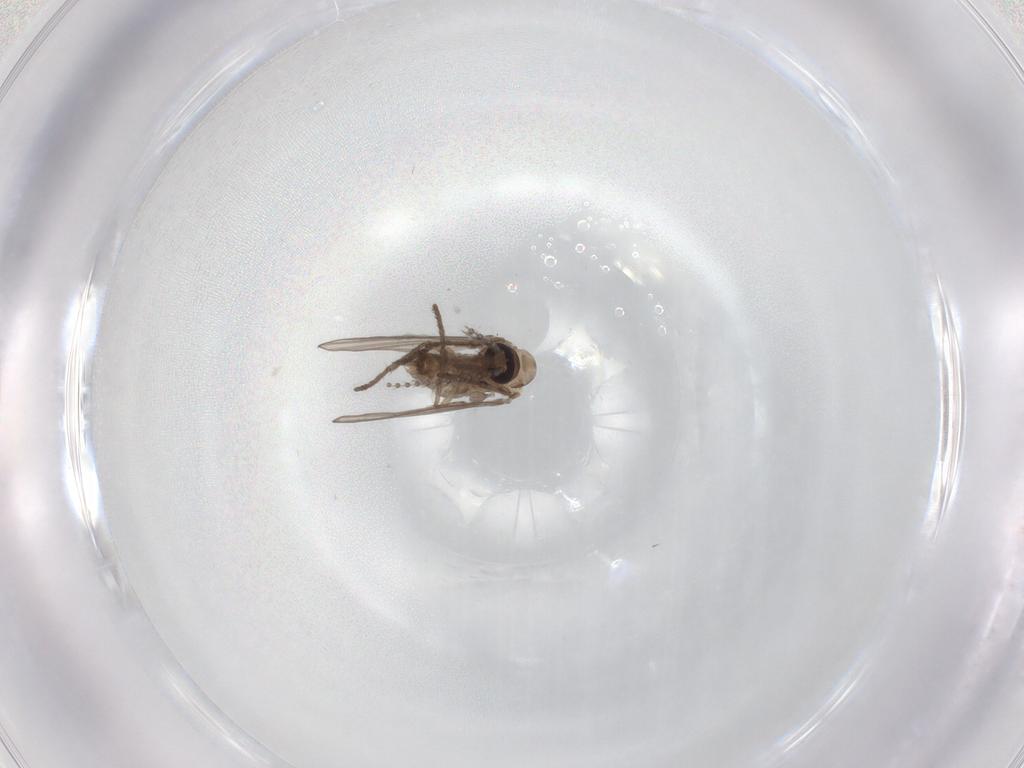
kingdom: Animalia
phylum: Arthropoda
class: Insecta
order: Diptera
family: Psychodidae
